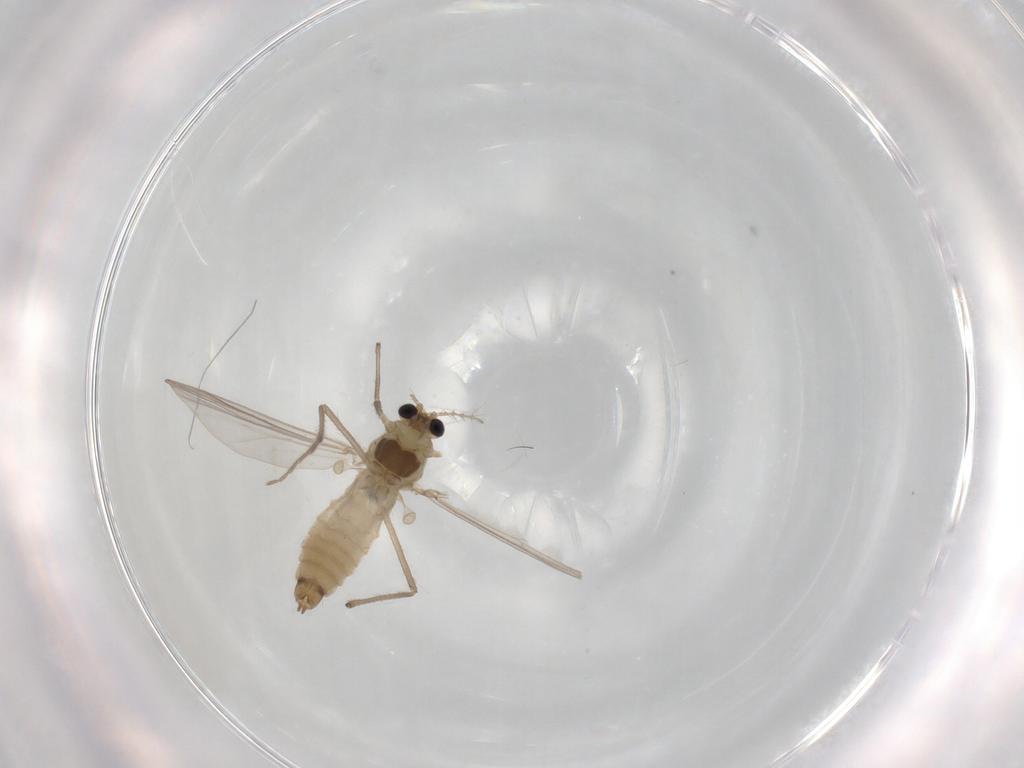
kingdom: Animalia
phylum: Arthropoda
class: Insecta
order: Diptera
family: Chironomidae
